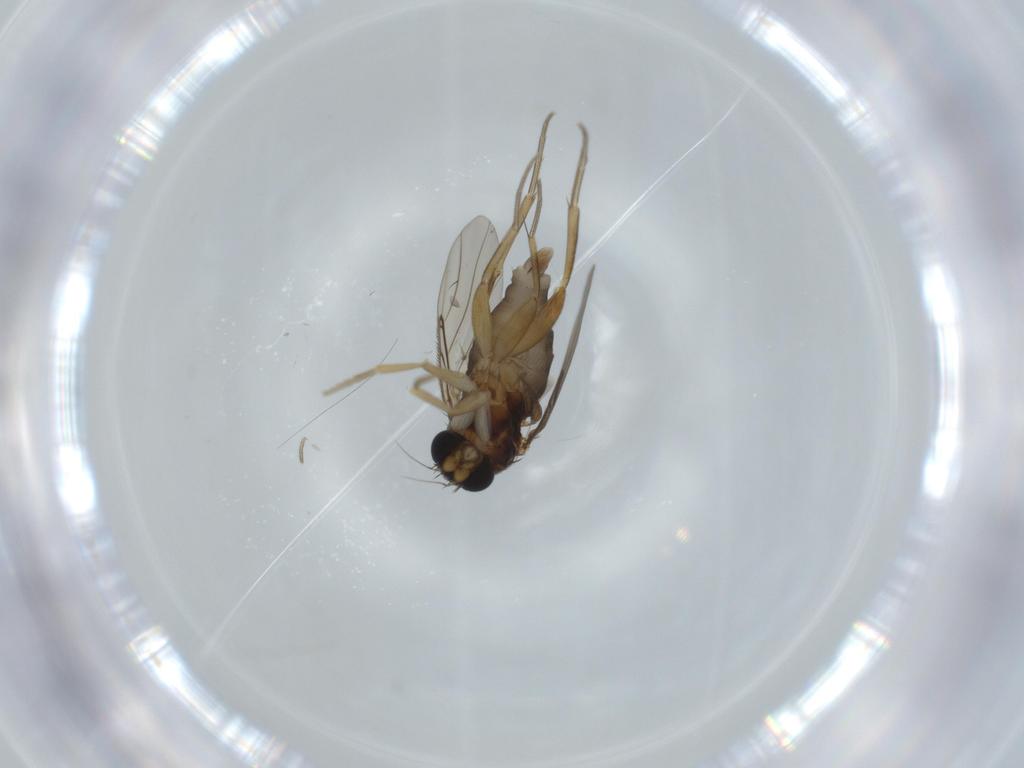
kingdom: Animalia
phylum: Arthropoda
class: Insecta
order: Diptera
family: Phoridae
